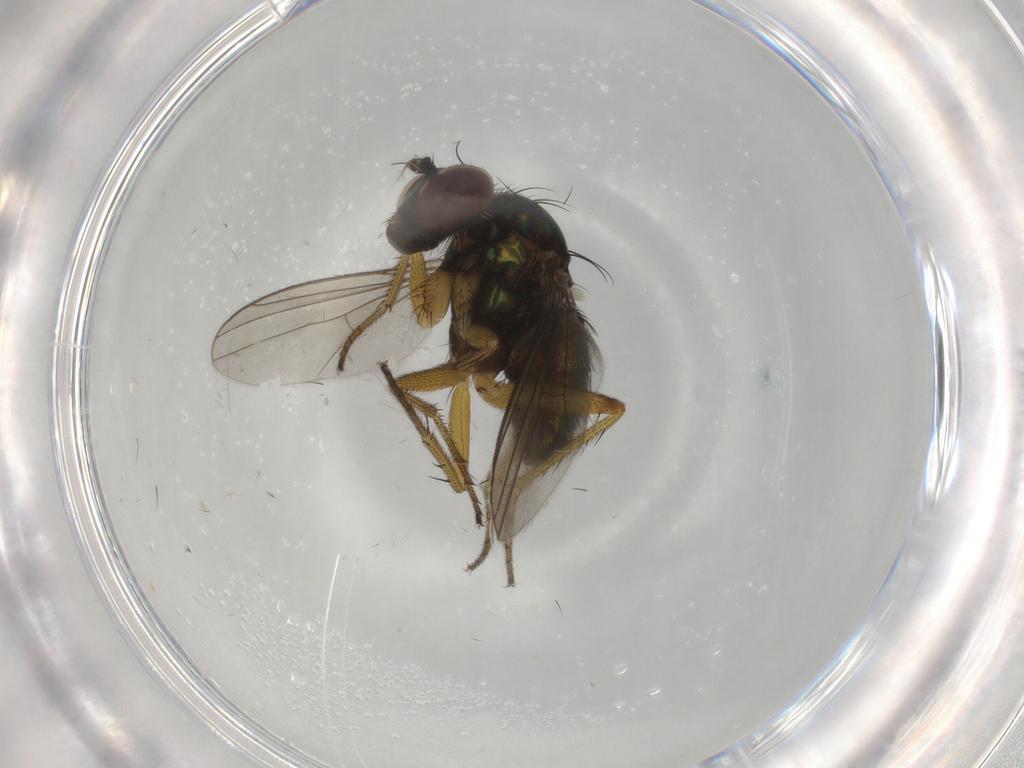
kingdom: Animalia
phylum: Arthropoda
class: Insecta
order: Diptera
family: Dolichopodidae
